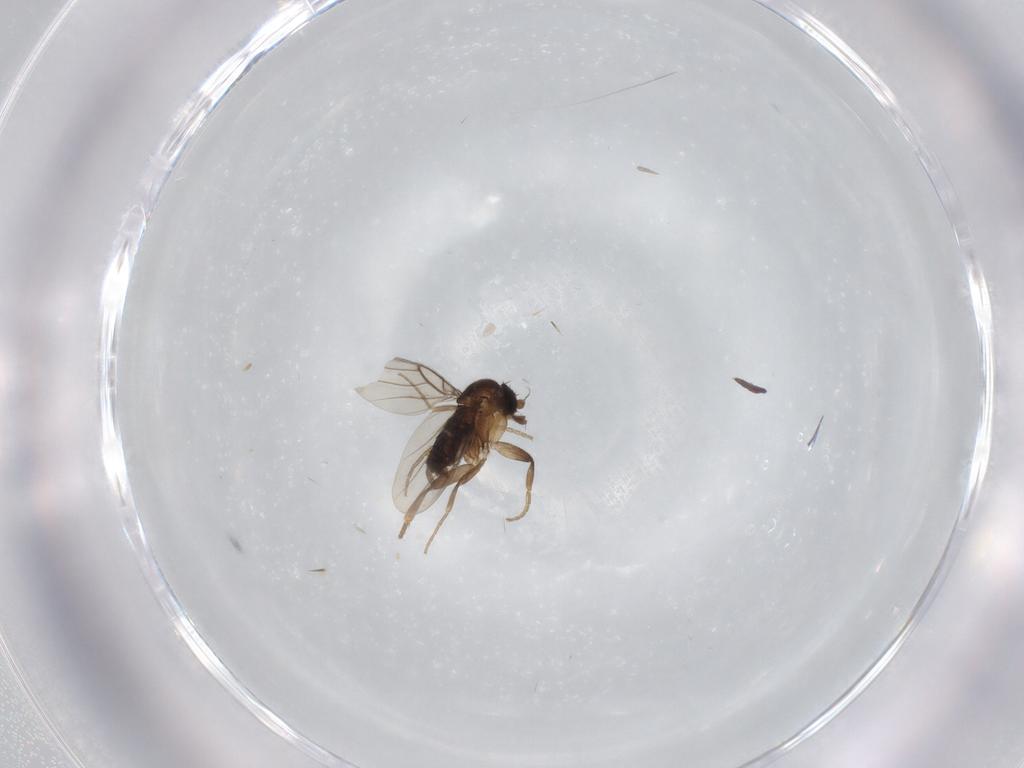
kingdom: Animalia
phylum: Arthropoda
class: Insecta
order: Diptera
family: Phoridae
